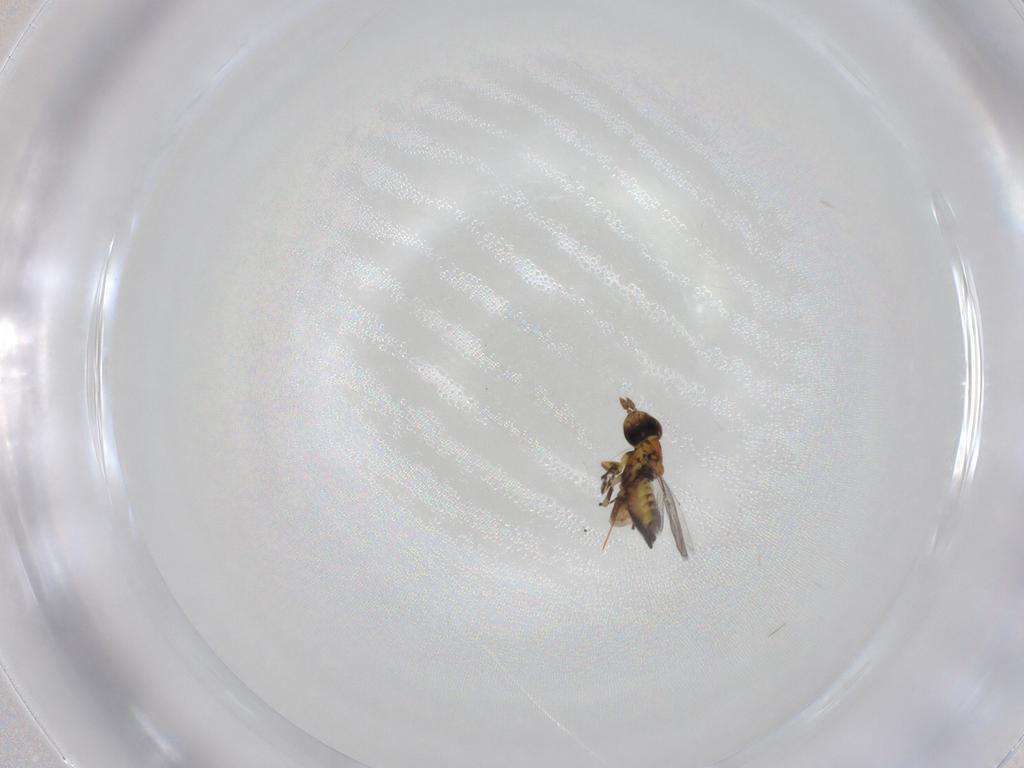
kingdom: Animalia
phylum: Arthropoda
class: Insecta
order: Hymenoptera
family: Eulophidae
